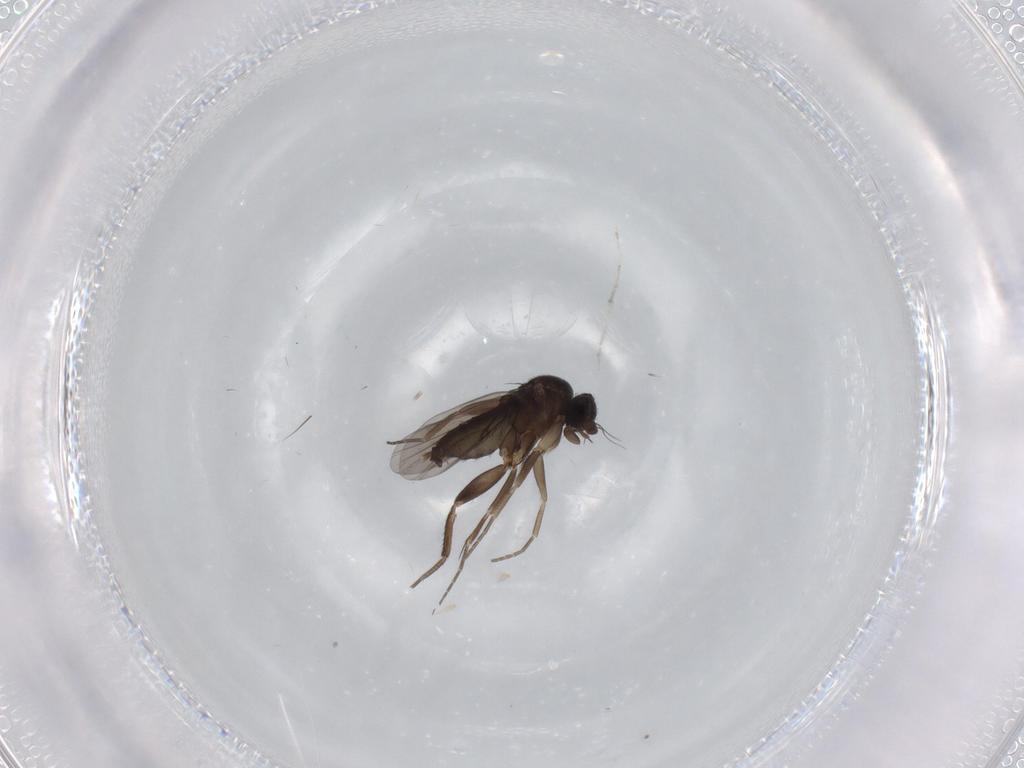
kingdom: Animalia
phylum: Arthropoda
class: Insecta
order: Diptera
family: Phoridae
